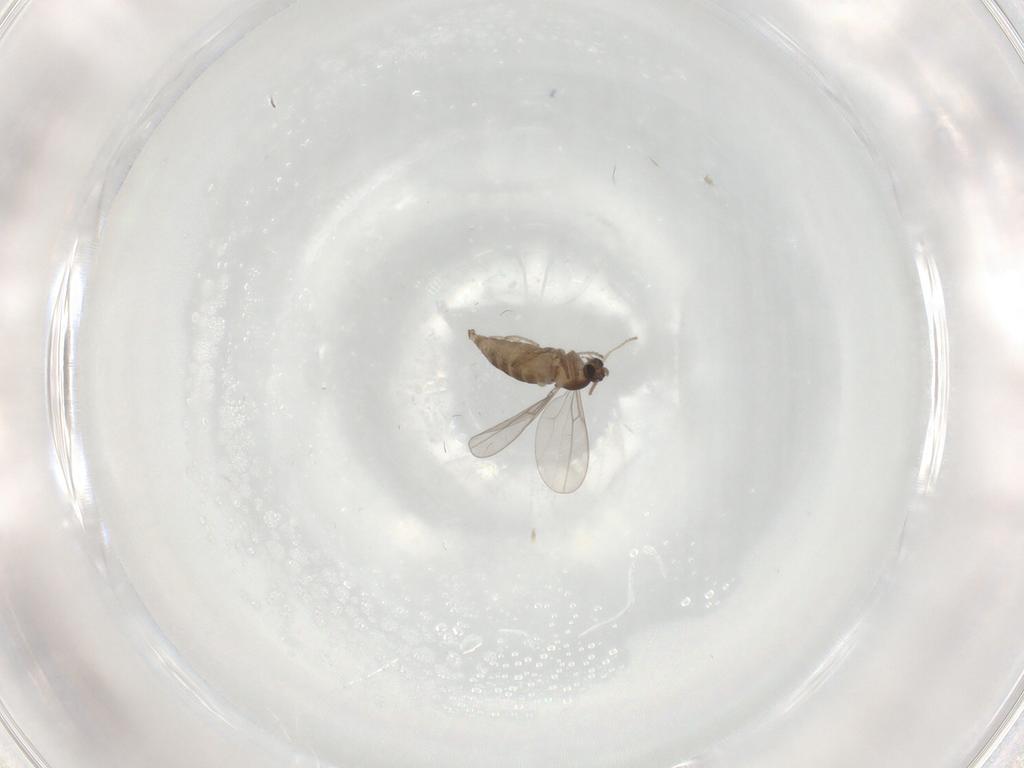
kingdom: Animalia
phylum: Arthropoda
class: Insecta
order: Diptera
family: Cecidomyiidae
